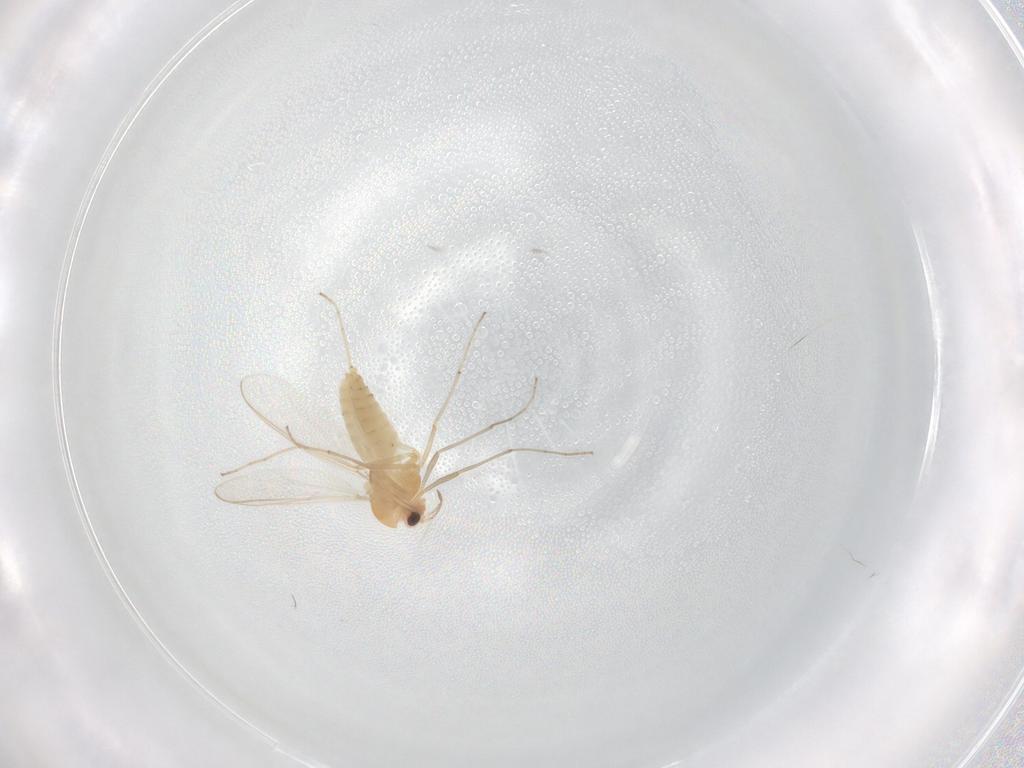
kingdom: Animalia
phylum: Arthropoda
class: Insecta
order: Diptera
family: Chironomidae
